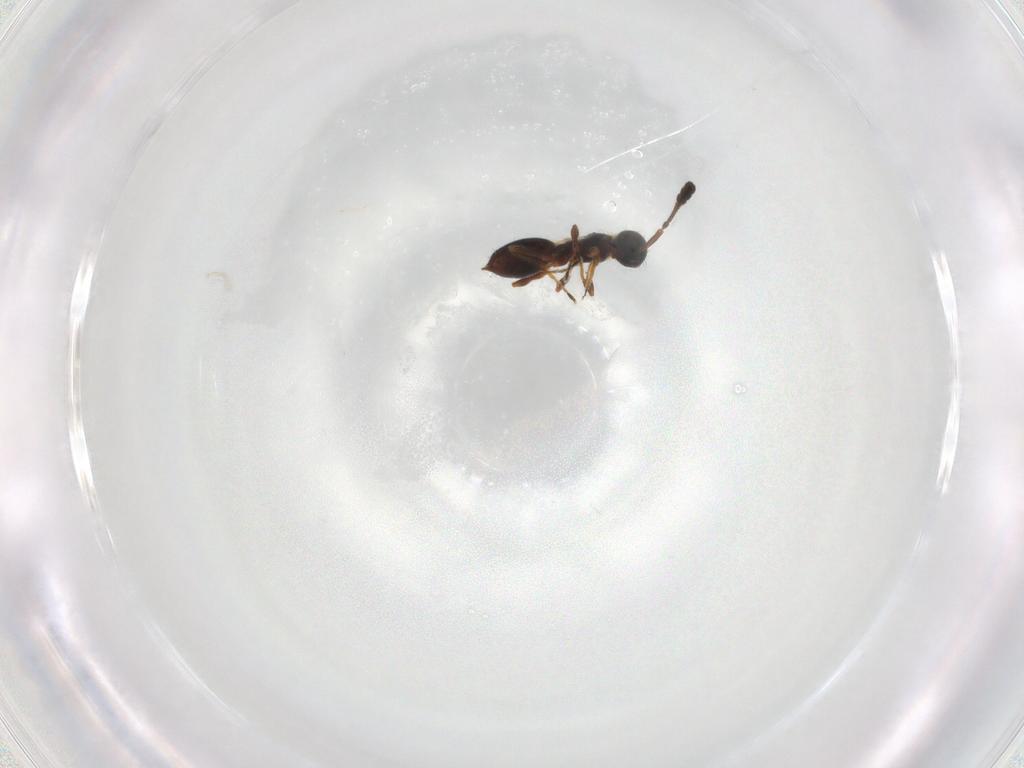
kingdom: Animalia
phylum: Arthropoda
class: Insecta
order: Hymenoptera
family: Diapriidae
